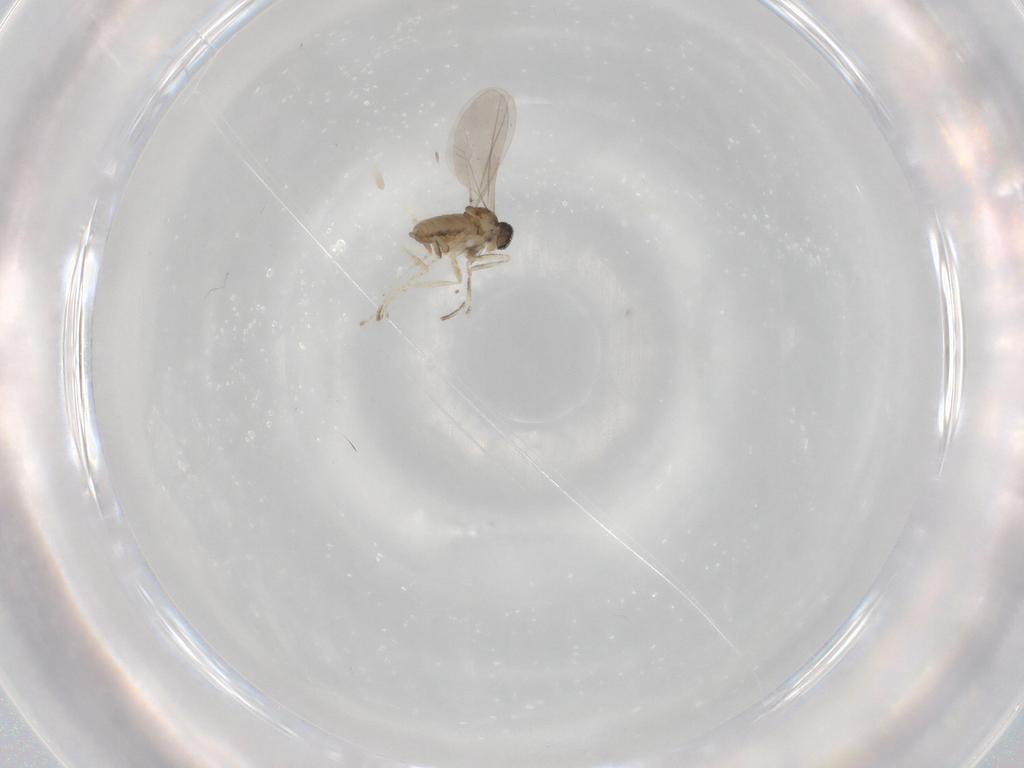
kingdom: Animalia
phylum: Arthropoda
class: Insecta
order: Diptera
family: Cecidomyiidae
